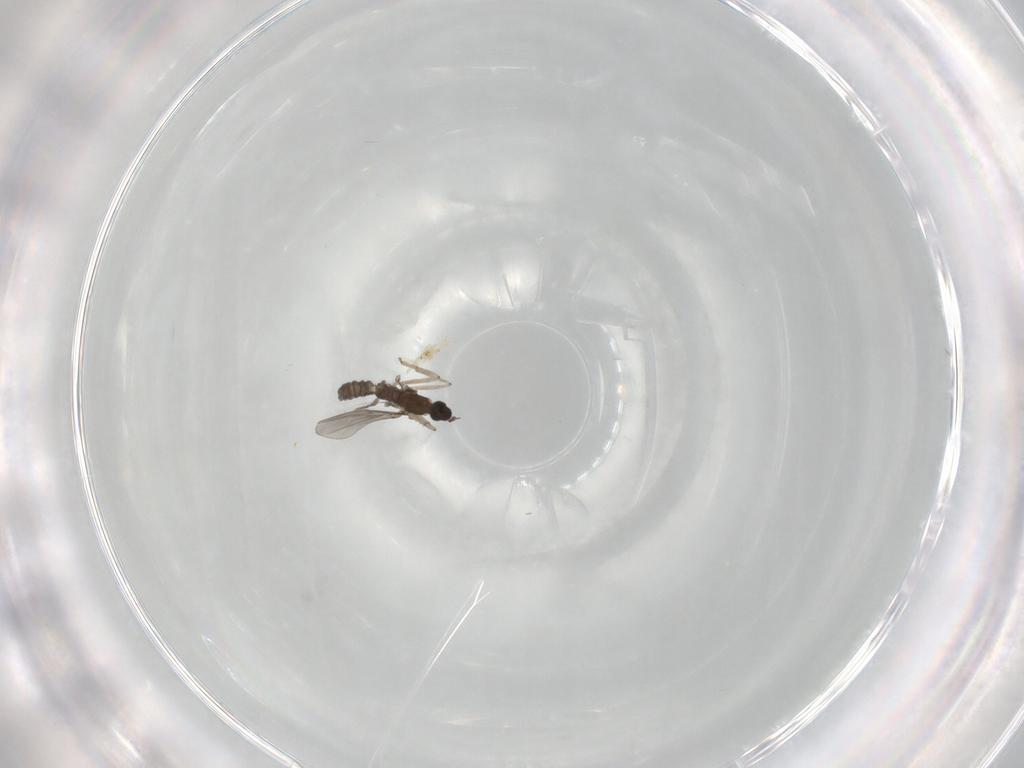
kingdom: Animalia
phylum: Arthropoda
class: Insecta
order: Diptera
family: Cecidomyiidae
